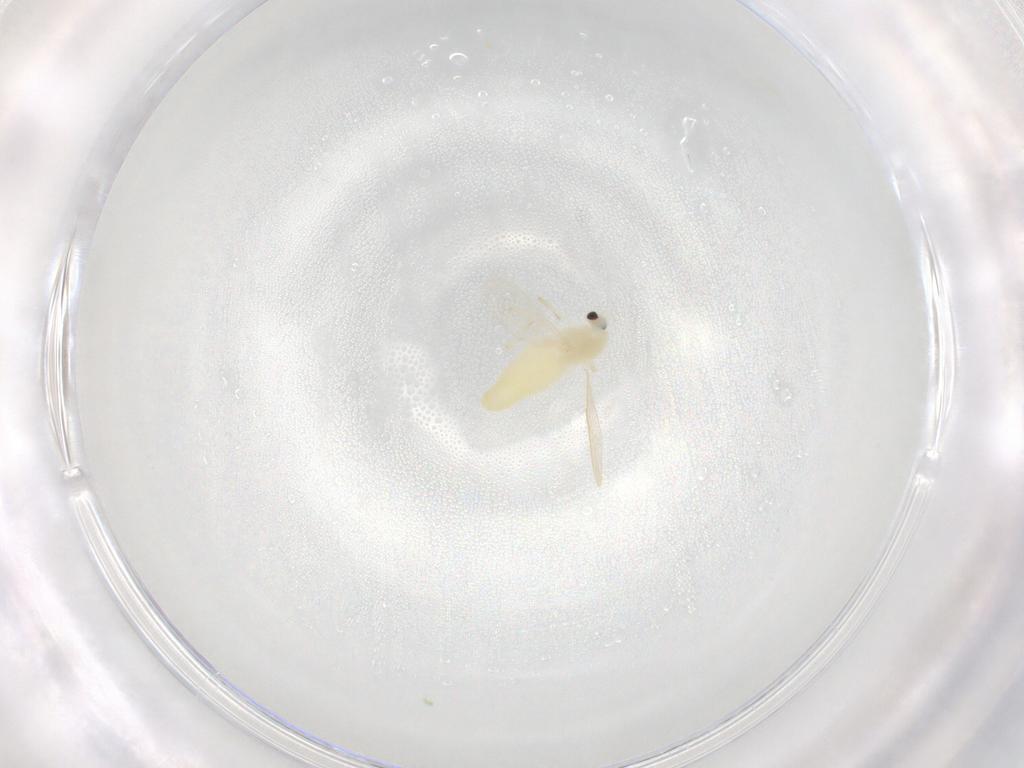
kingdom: Animalia
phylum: Arthropoda
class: Insecta
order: Diptera
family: Chironomidae
